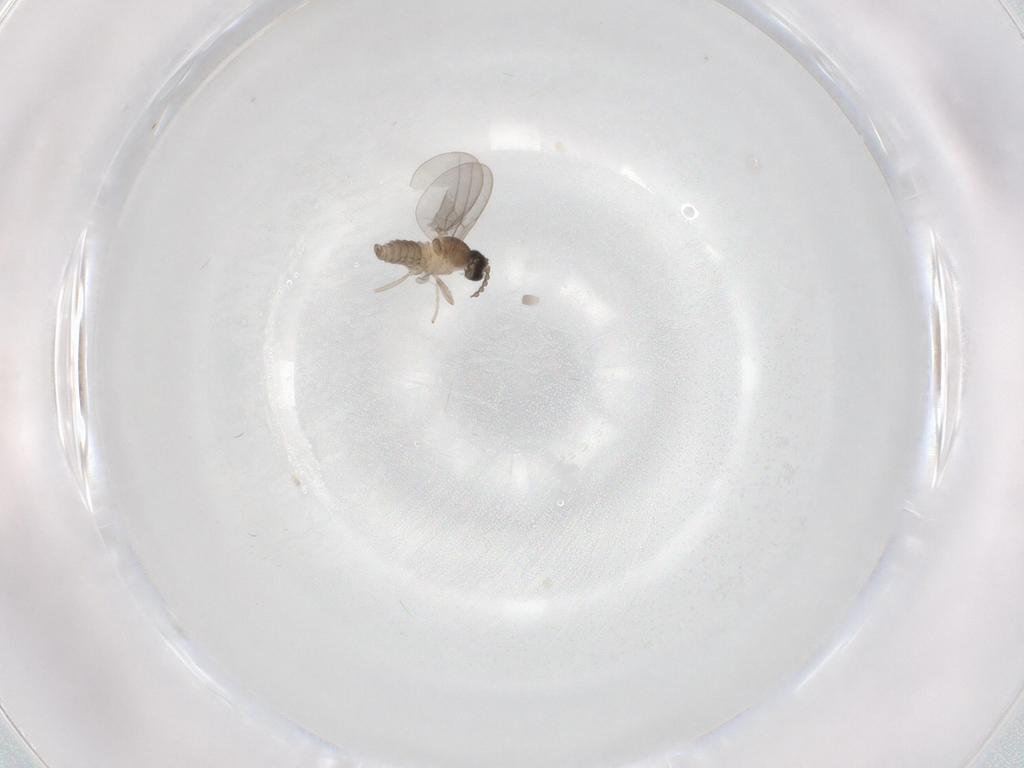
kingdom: Animalia
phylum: Arthropoda
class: Insecta
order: Diptera
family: Cecidomyiidae
